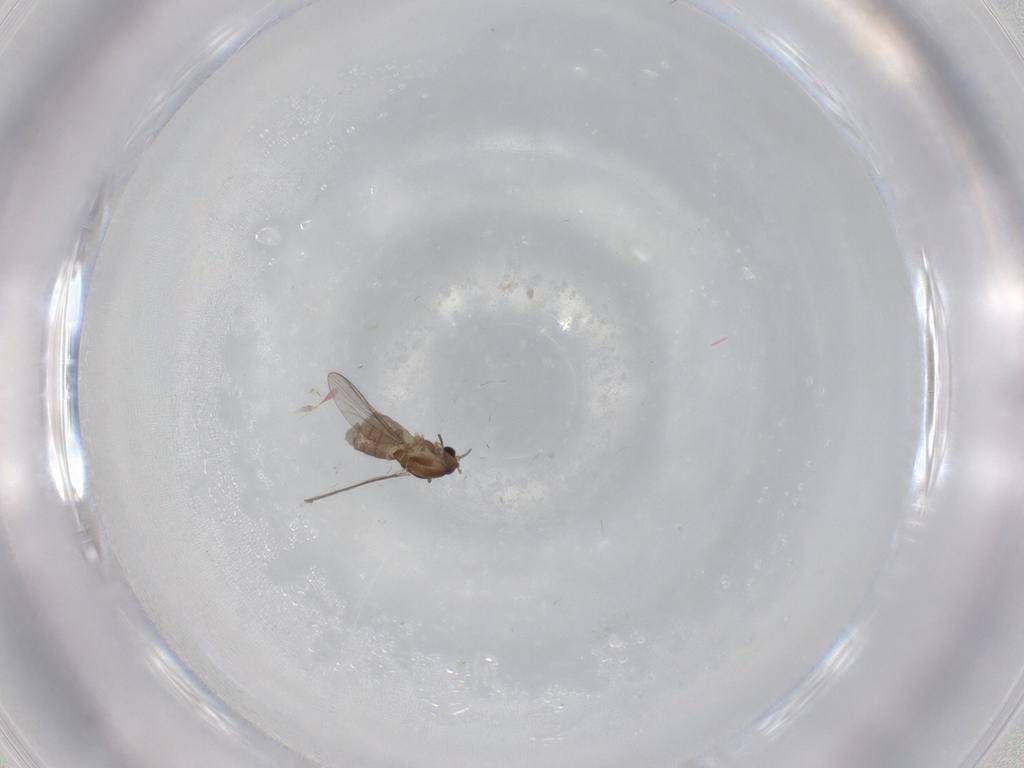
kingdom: Animalia
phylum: Arthropoda
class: Insecta
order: Diptera
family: Chironomidae
